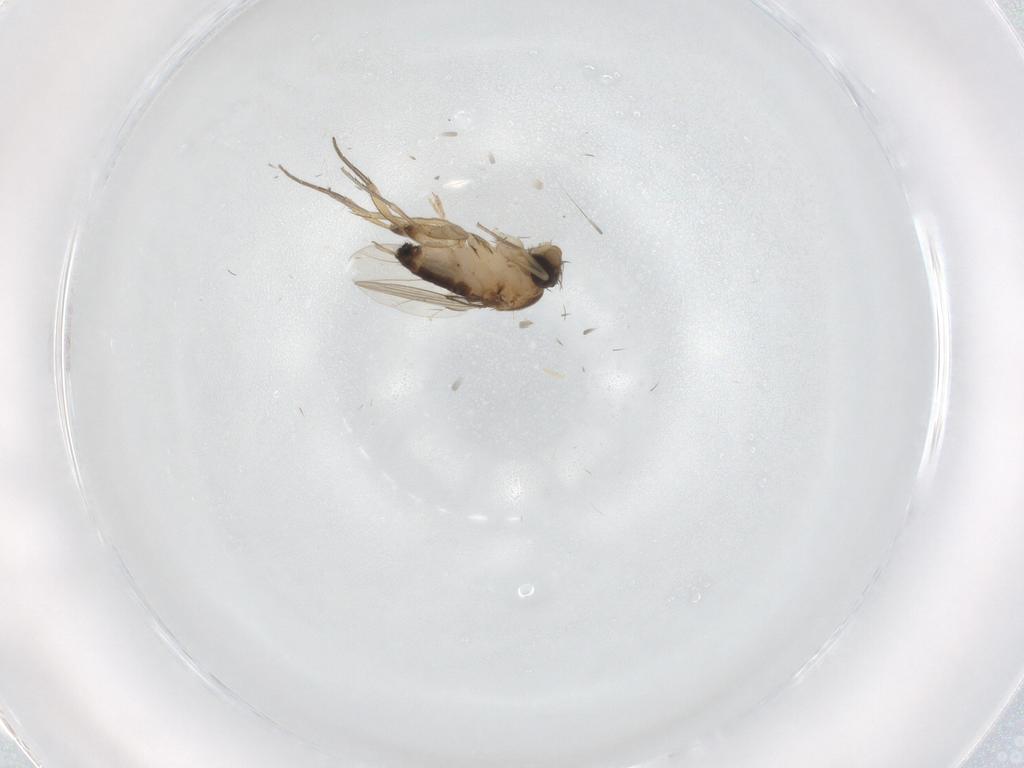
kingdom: Animalia
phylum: Arthropoda
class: Insecta
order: Diptera
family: Phoridae
